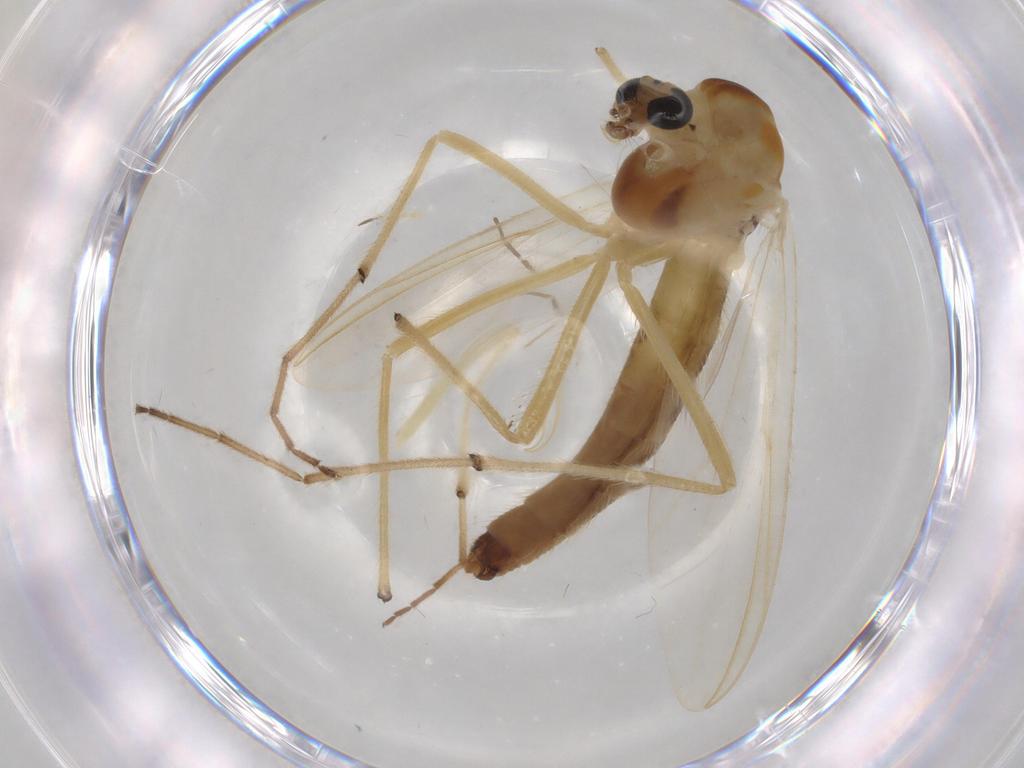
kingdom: Animalia
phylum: Arthropoda
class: Insecta
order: Diptera
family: Chironomidae
